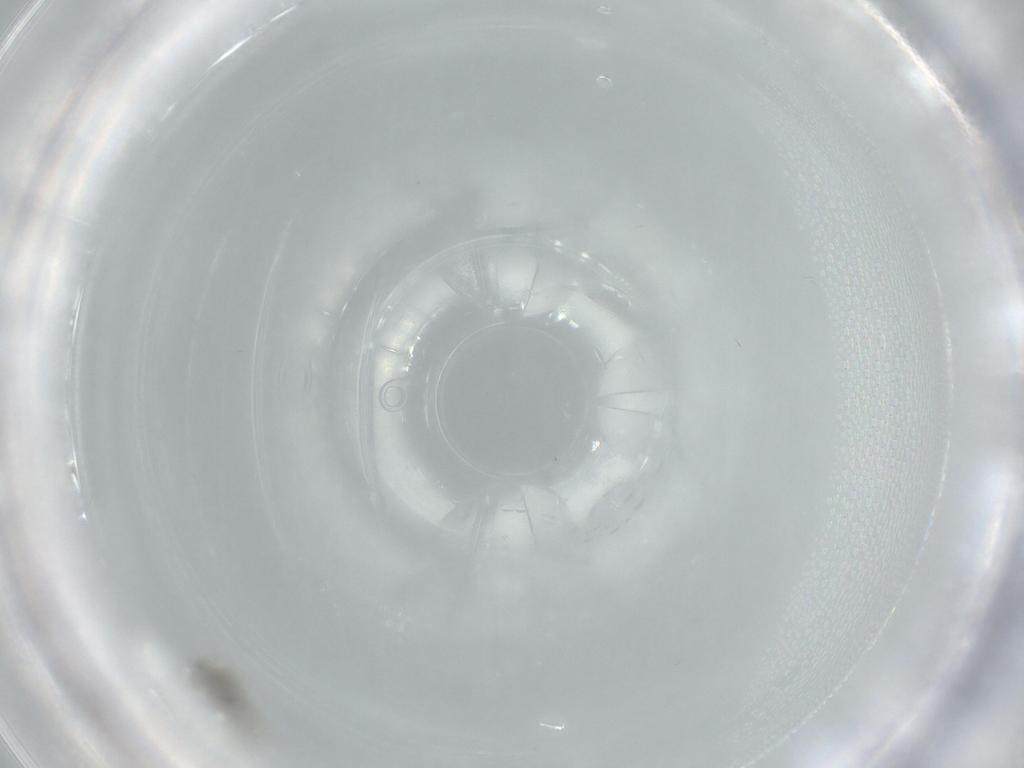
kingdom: Animalia
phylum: Arthropoda
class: Insecta
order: Diptera
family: Cecidomyiidae
